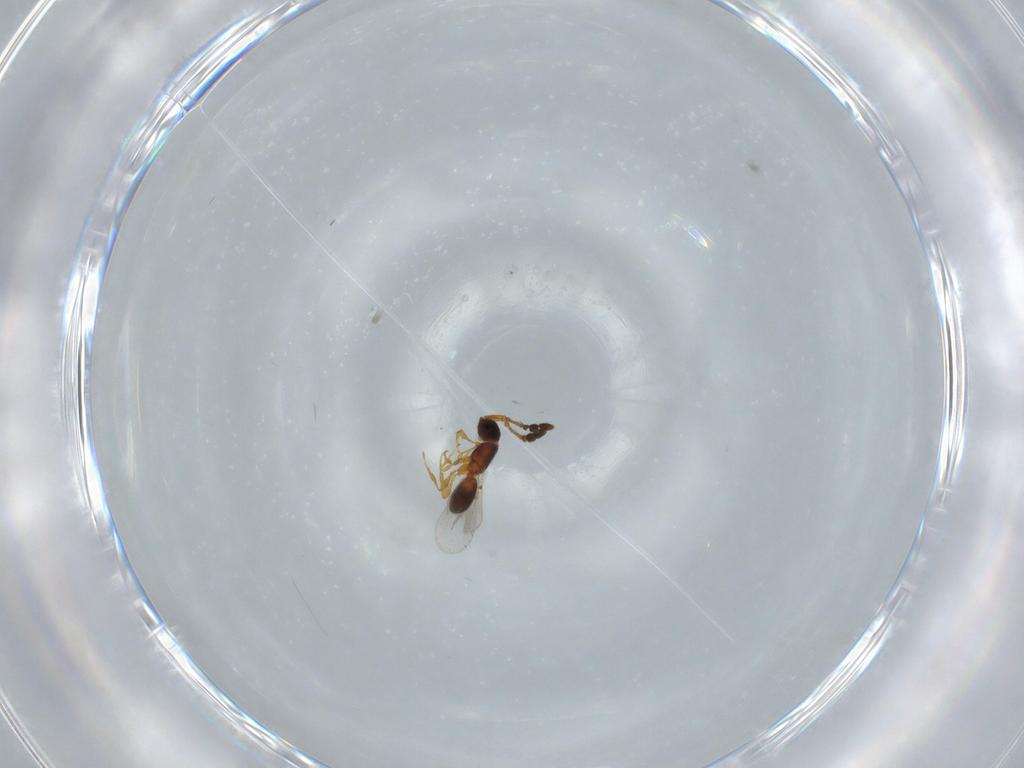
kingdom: Animalia
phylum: Arthropoda
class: Insecta
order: Hymenoptera
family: Diapriidae
